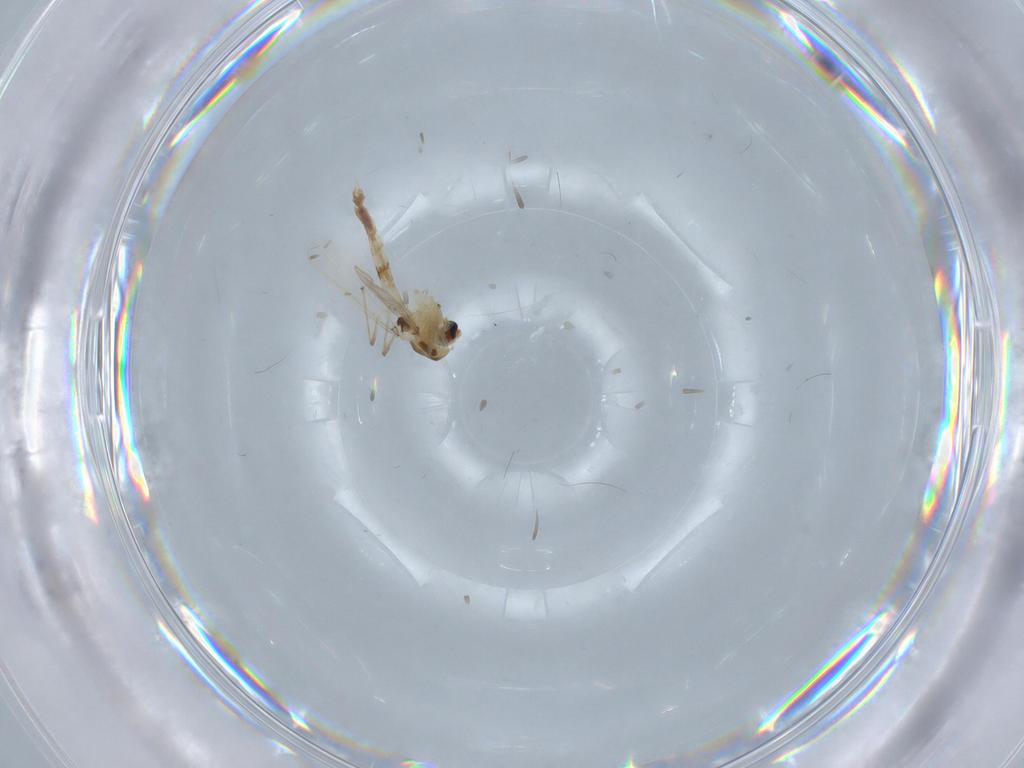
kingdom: Animalia
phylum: Arthropoda
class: Insecta
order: Diptera
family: Chironomidae
